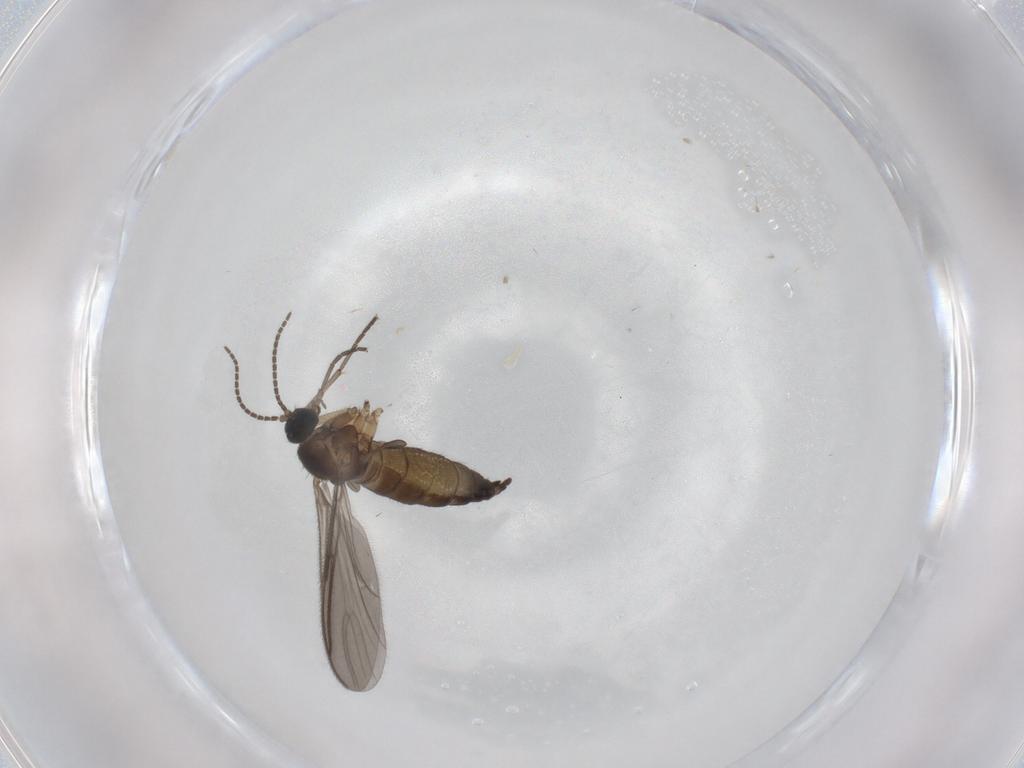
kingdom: Animalia
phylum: Arthropoda
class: Insecta
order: Diptera
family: Sciaridae
